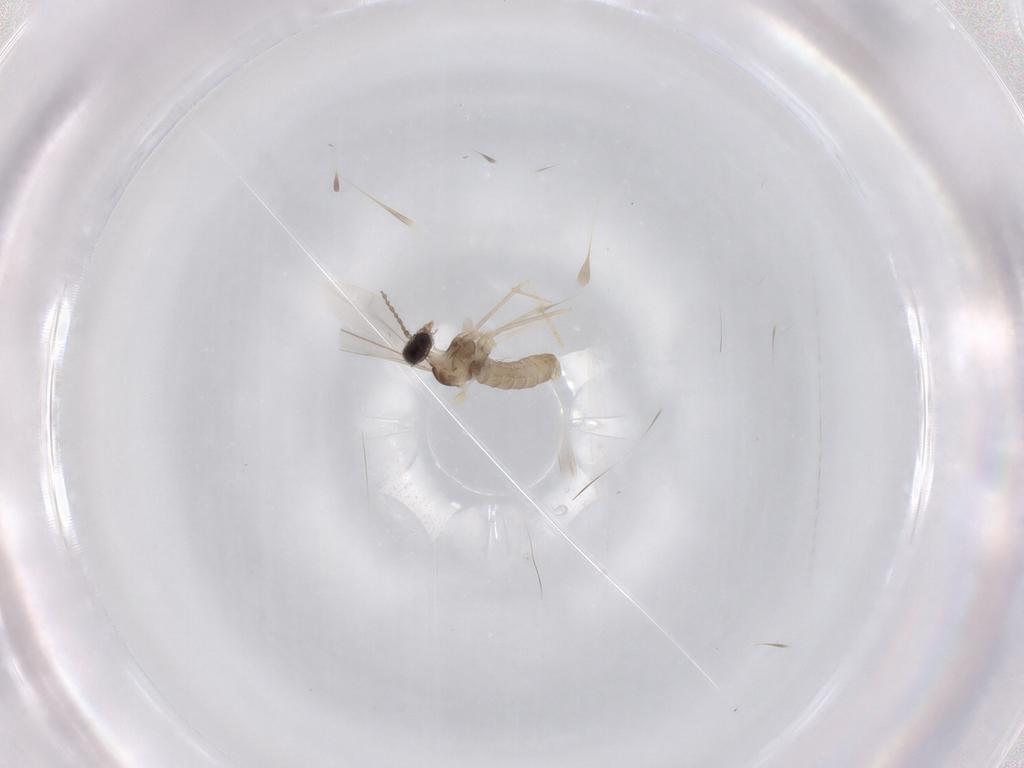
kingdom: Animalia
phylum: Arthropoda
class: Insecta
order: Diptera
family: Cecidomyiidae
